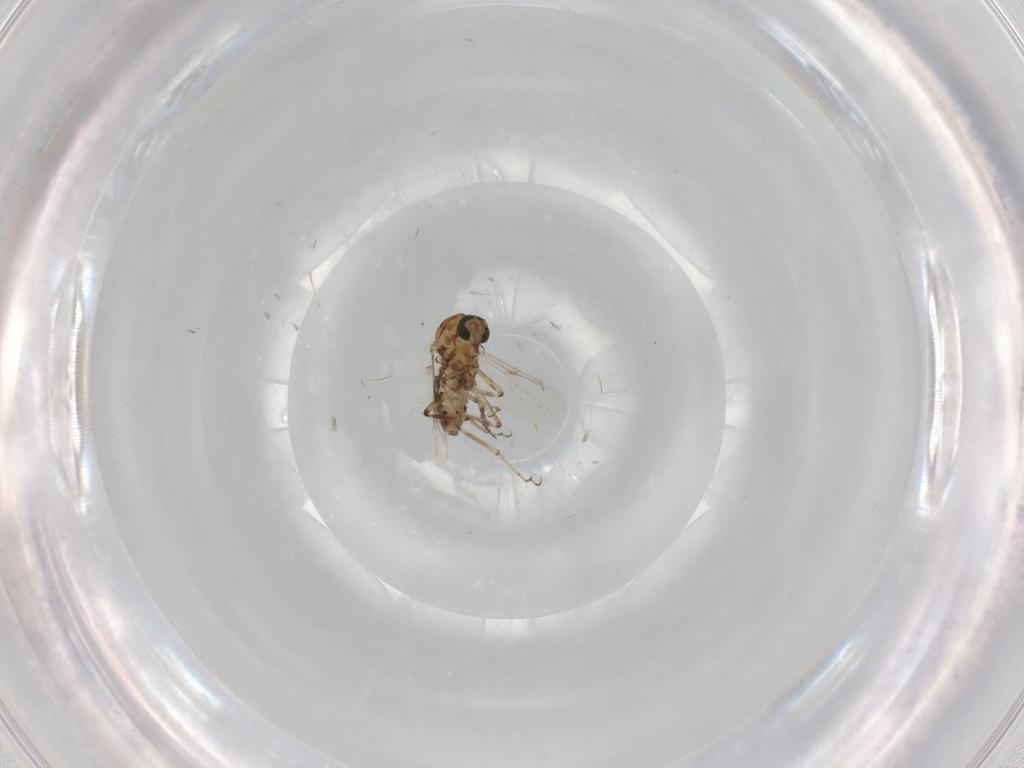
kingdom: Animalia
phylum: Arthropoda
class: Insecta
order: Diptera
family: Ceratopogonidae
